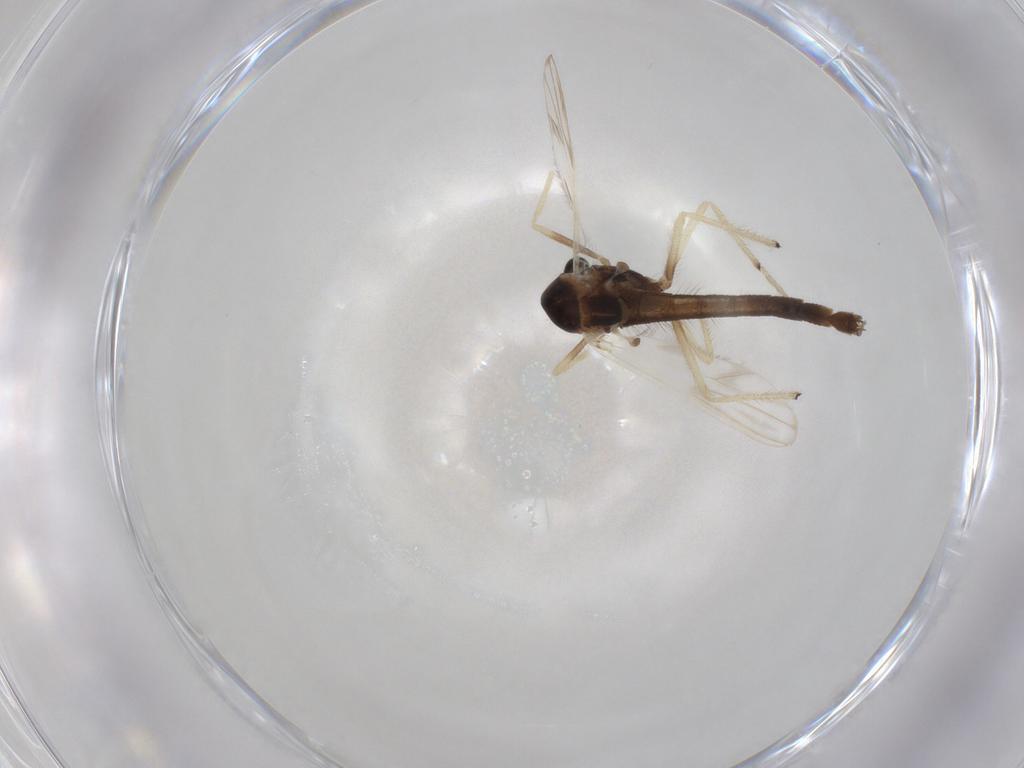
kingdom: Animalia
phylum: Arthropoda
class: Insecta
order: Diptera
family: Chironomidae
